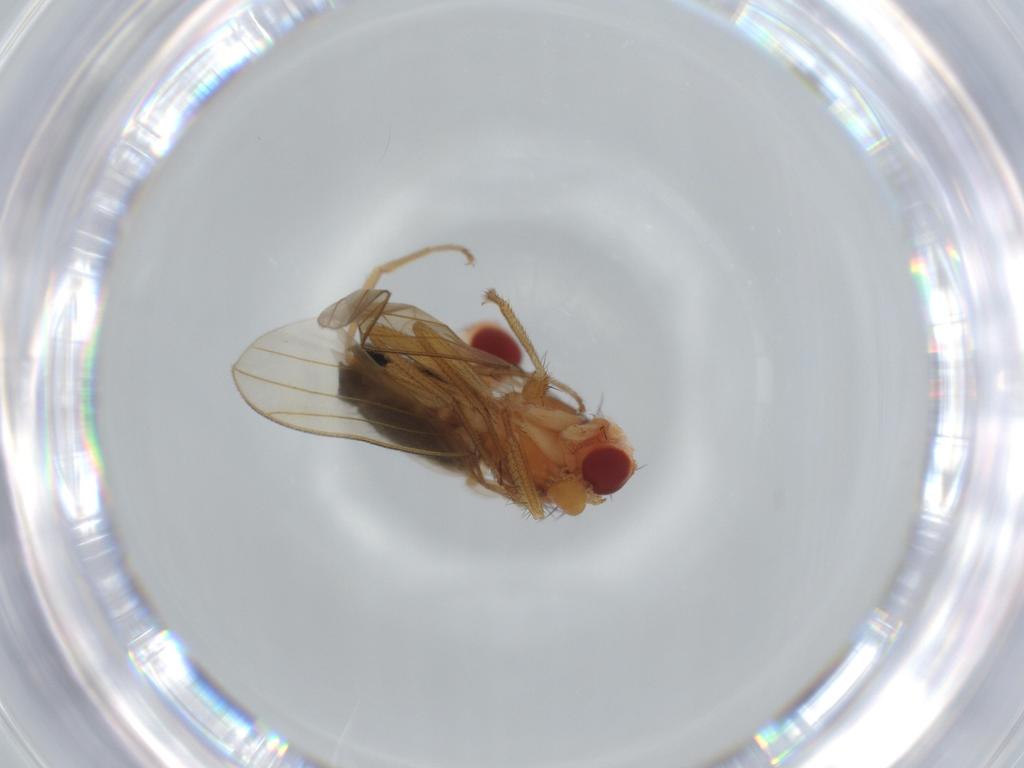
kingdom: Animalia
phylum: Arthropoda
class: Insecta
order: Diptera
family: Drosophilidae
